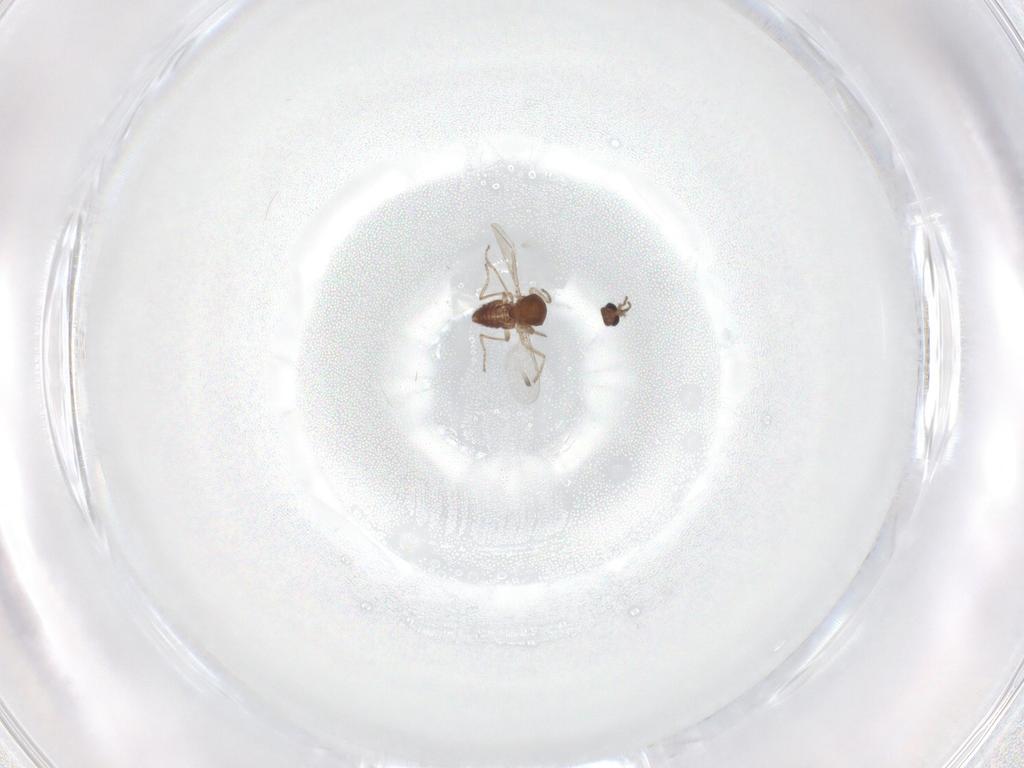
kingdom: Animalia
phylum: Arthropoda
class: Insecta
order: Diptera
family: Ceratopogonidae
